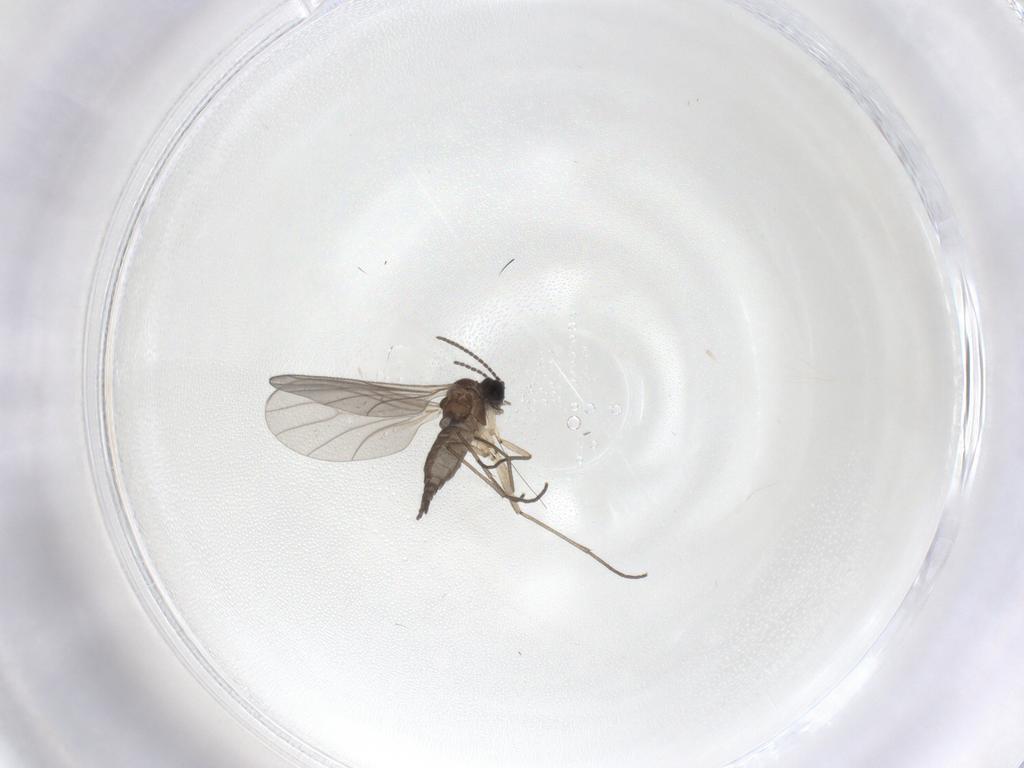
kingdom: Animalia
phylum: Arthropoda
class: Insecta
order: Diptera
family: Sciaridae
